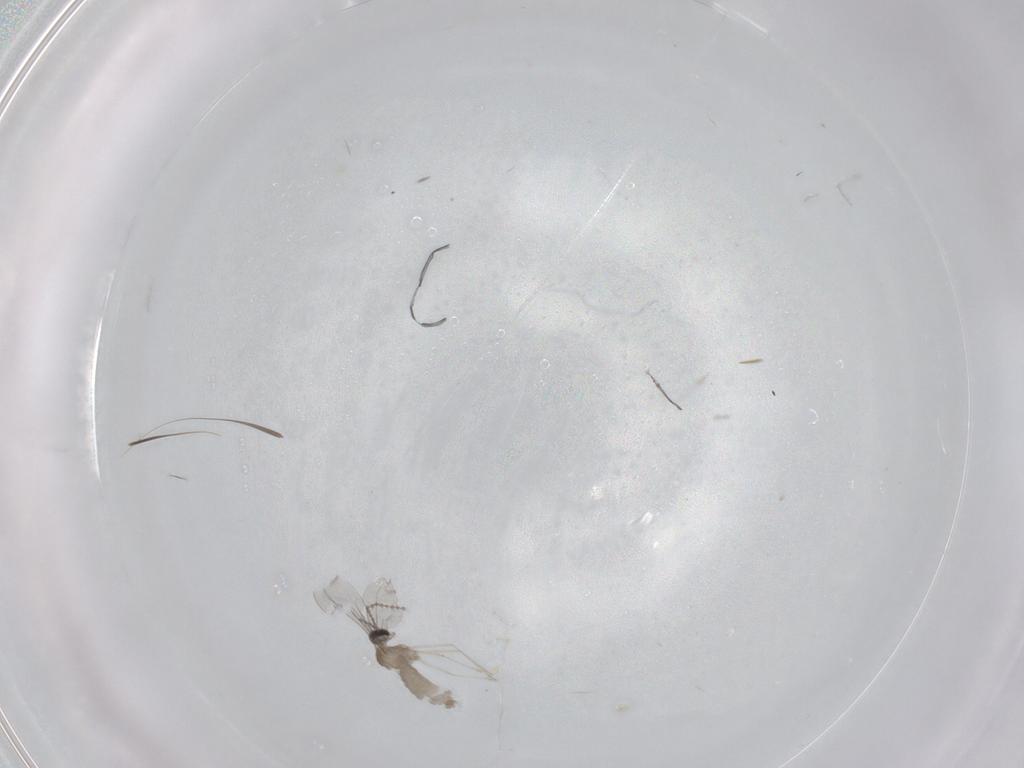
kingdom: Animalia
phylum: Arthropoda
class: Insecta
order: Diptera
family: Cecidomyiidae
